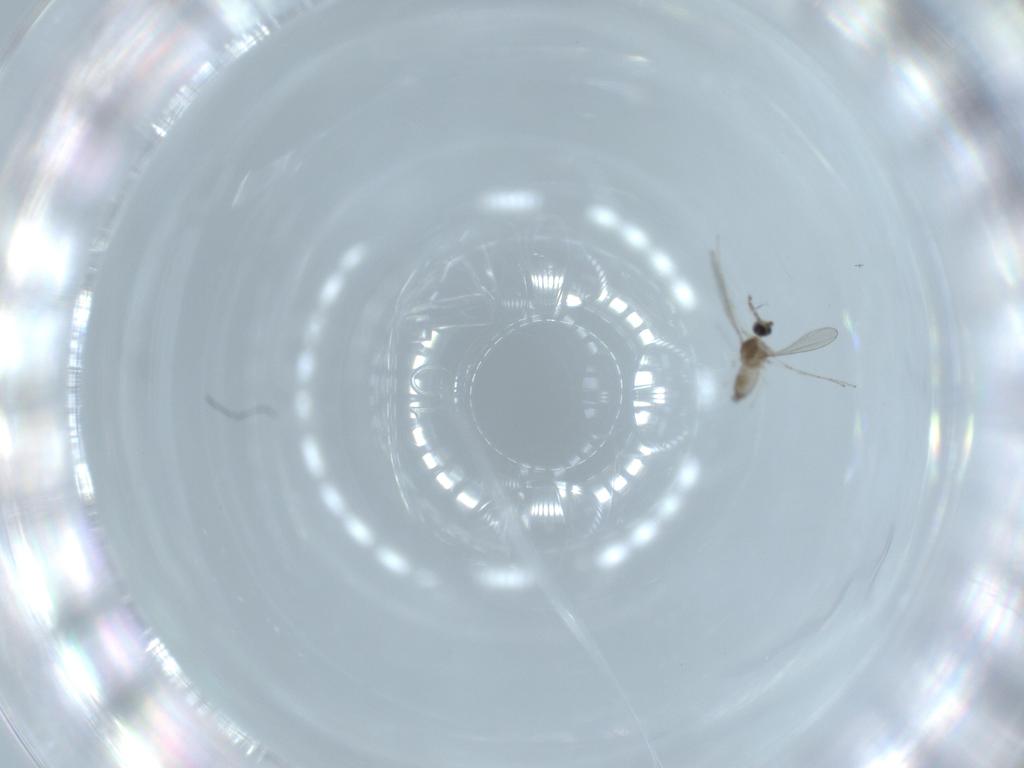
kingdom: Animalia
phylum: Arthropoda
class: Insecta
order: Diptera
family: Cecidomyiidae
